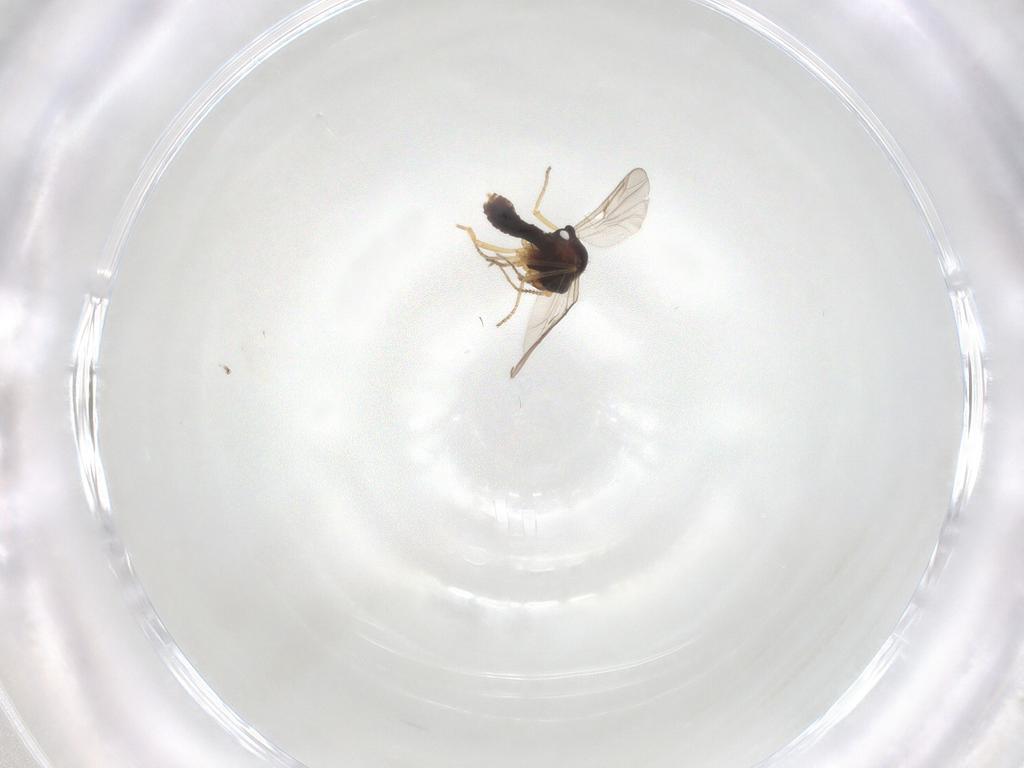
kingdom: Animalia
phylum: Arthropoda
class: Insecta
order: Diptera
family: Ceratopogonidae
